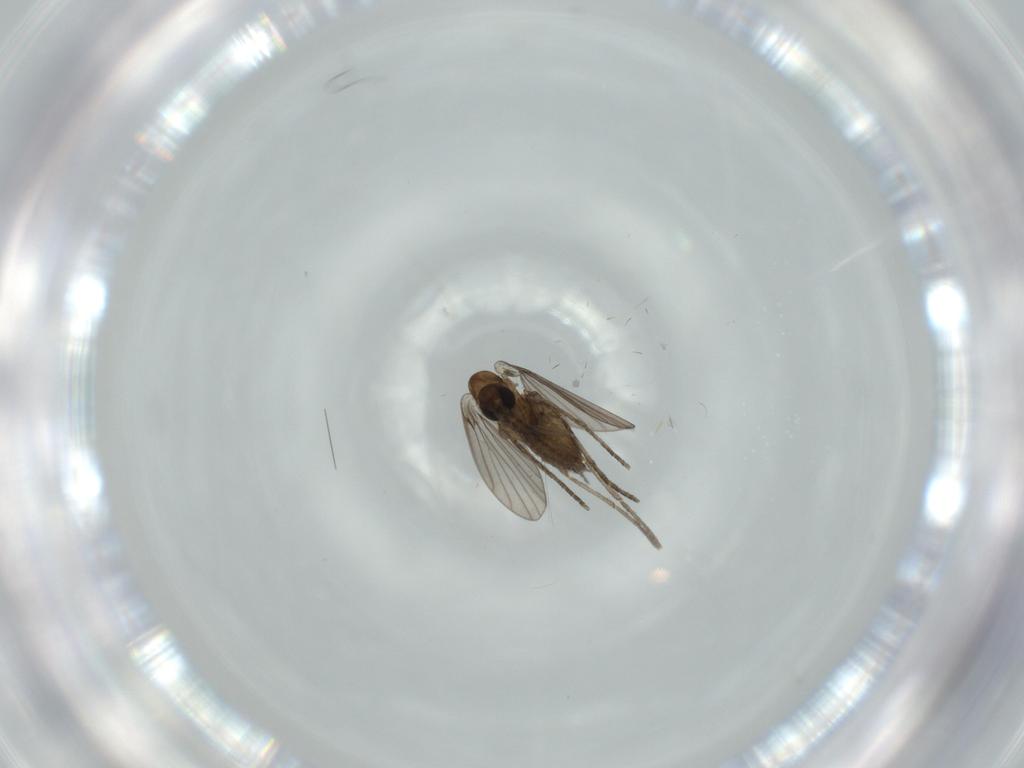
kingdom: Animalia
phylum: Arthropoda
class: Insecta
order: Diptera
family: Psychodidae
